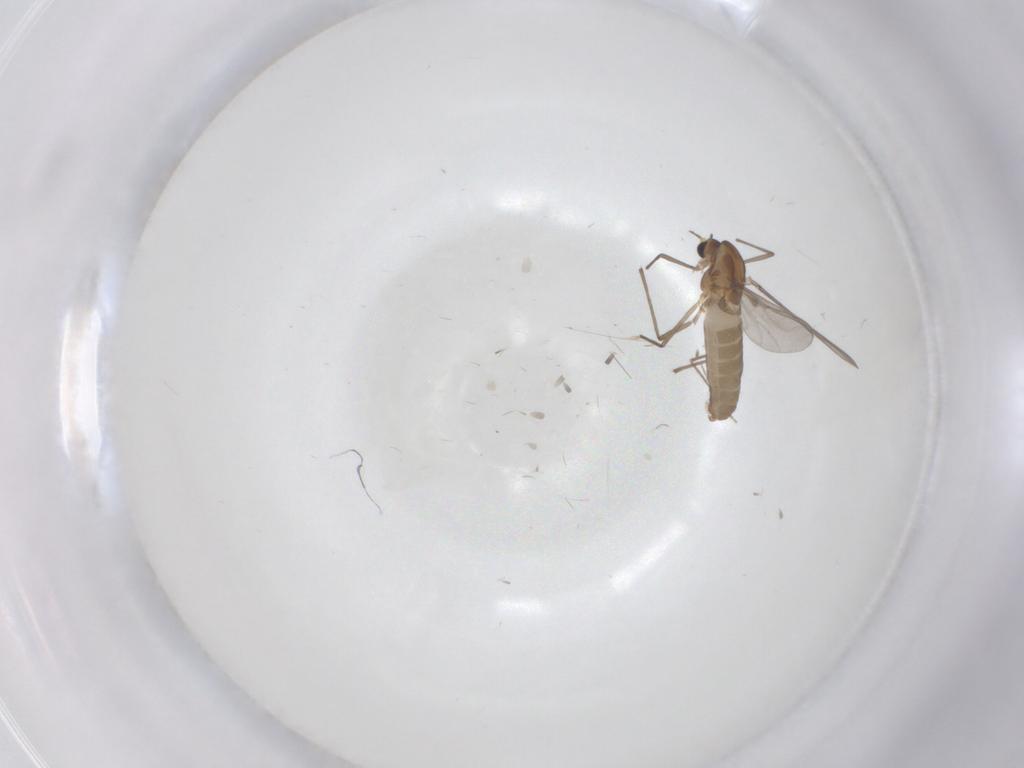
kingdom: Animalia
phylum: Arthropoda
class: Insecta
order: Diptera
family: Chironomidae
